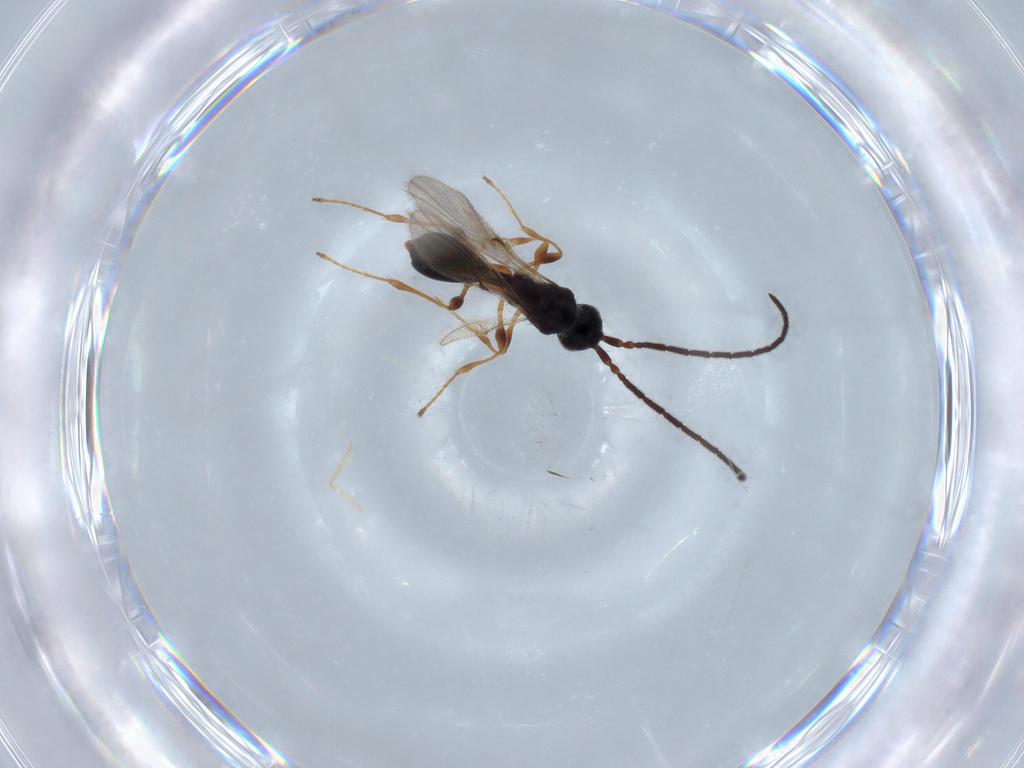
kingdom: Animalia
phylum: Arthropoda
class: Insecta
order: Hymenoptera
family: Diapriidae
